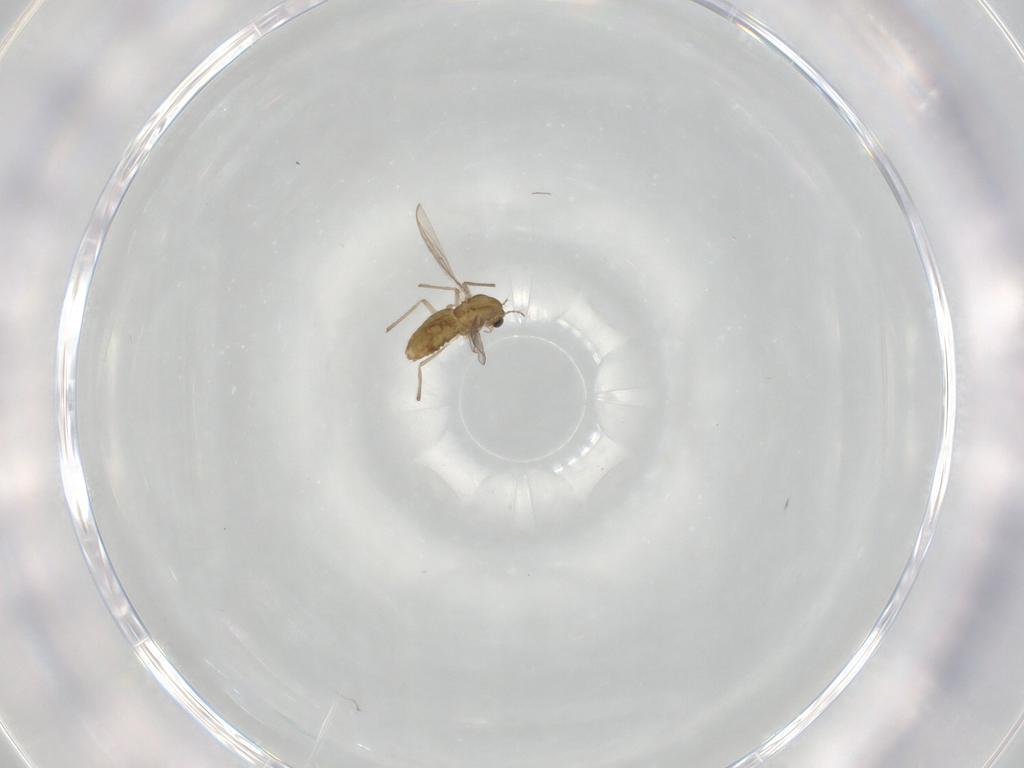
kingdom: Animalia
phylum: Arthropoda
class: Insecta
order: Diptera
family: Chironomidae
